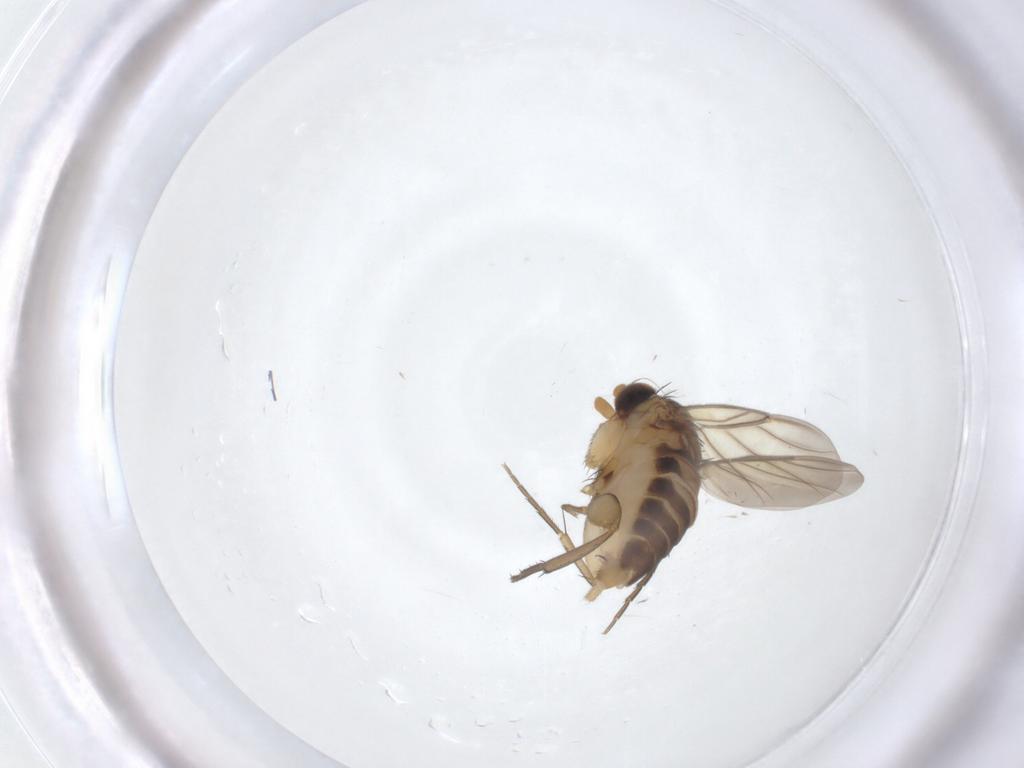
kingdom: Animalia
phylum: Arthropoda
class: Insecta
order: Diptera
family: Phoridae
